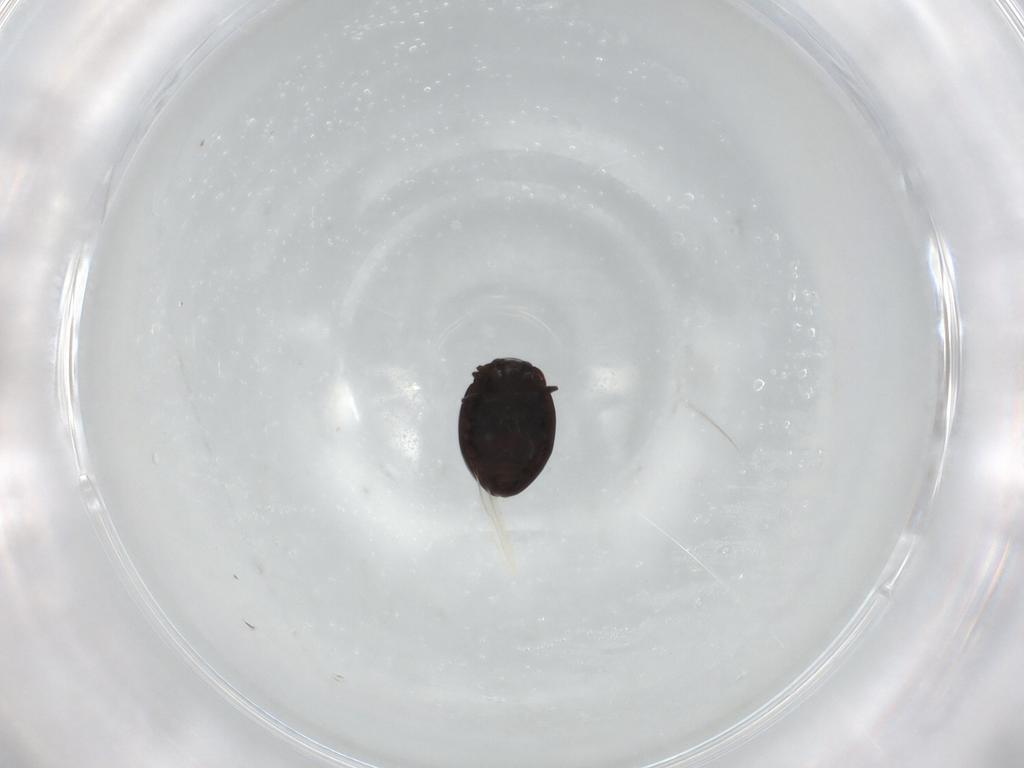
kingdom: Animalia
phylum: Arthropoda
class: Insecta
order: Coleoptera
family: Coccinellidae
